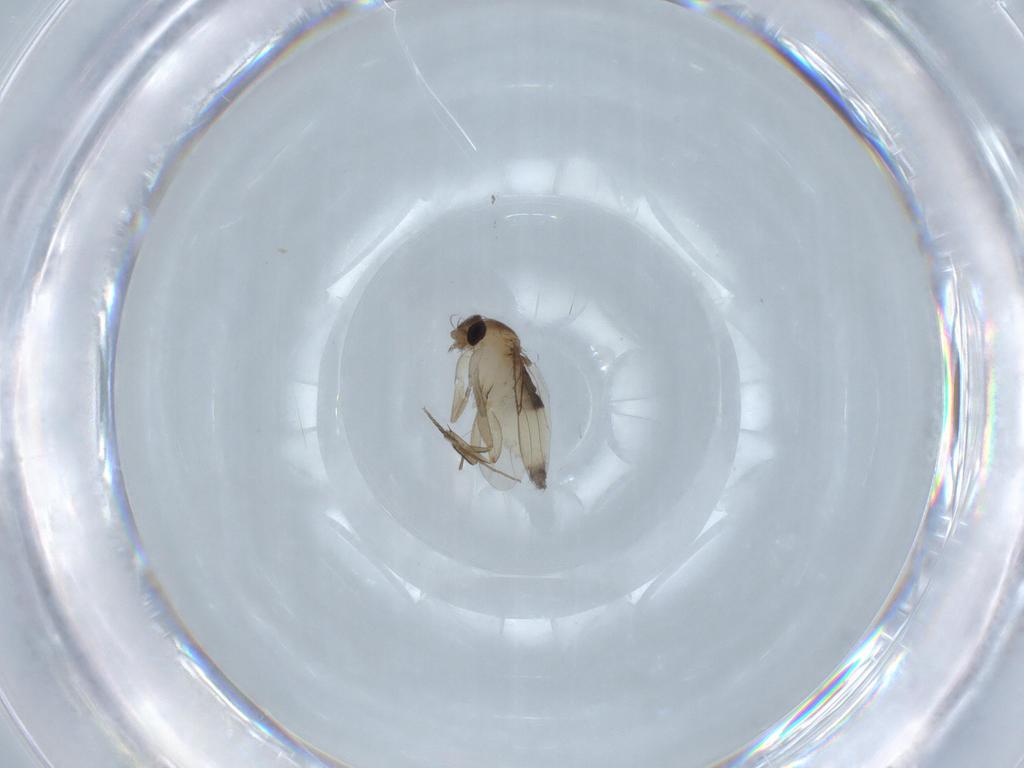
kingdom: Animalia
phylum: Arthropoda
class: Insecta
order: Diptera
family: Phoridae
